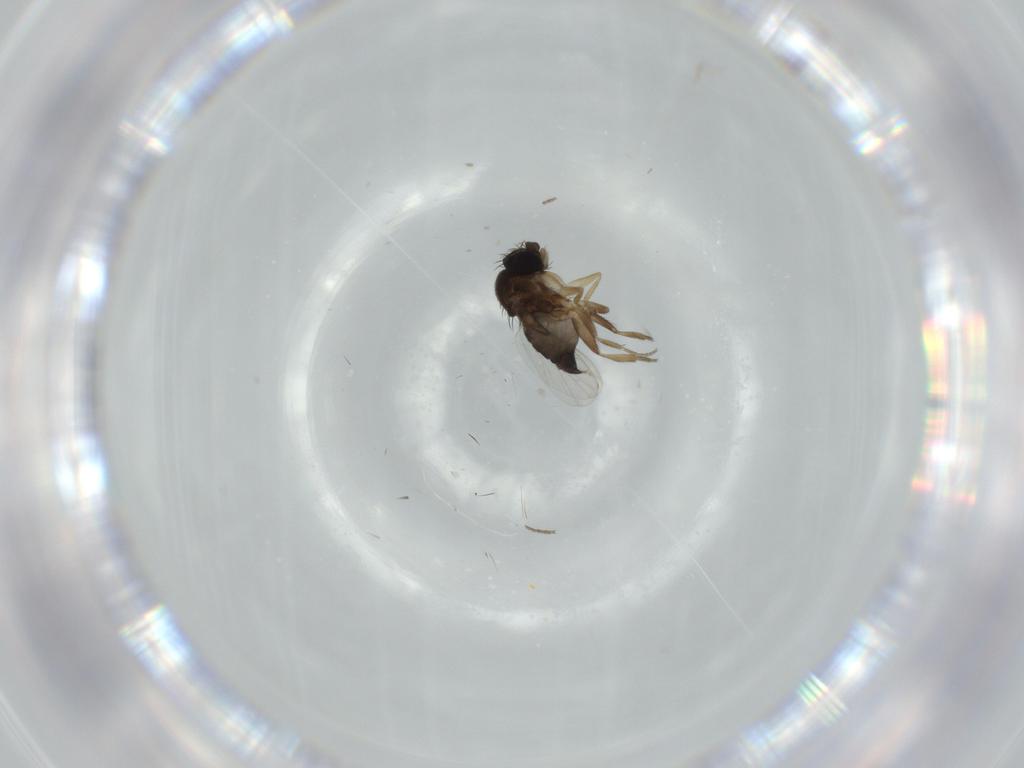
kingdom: Animalia
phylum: Arthropoda
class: Insecta
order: Diptera
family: Phoridae
